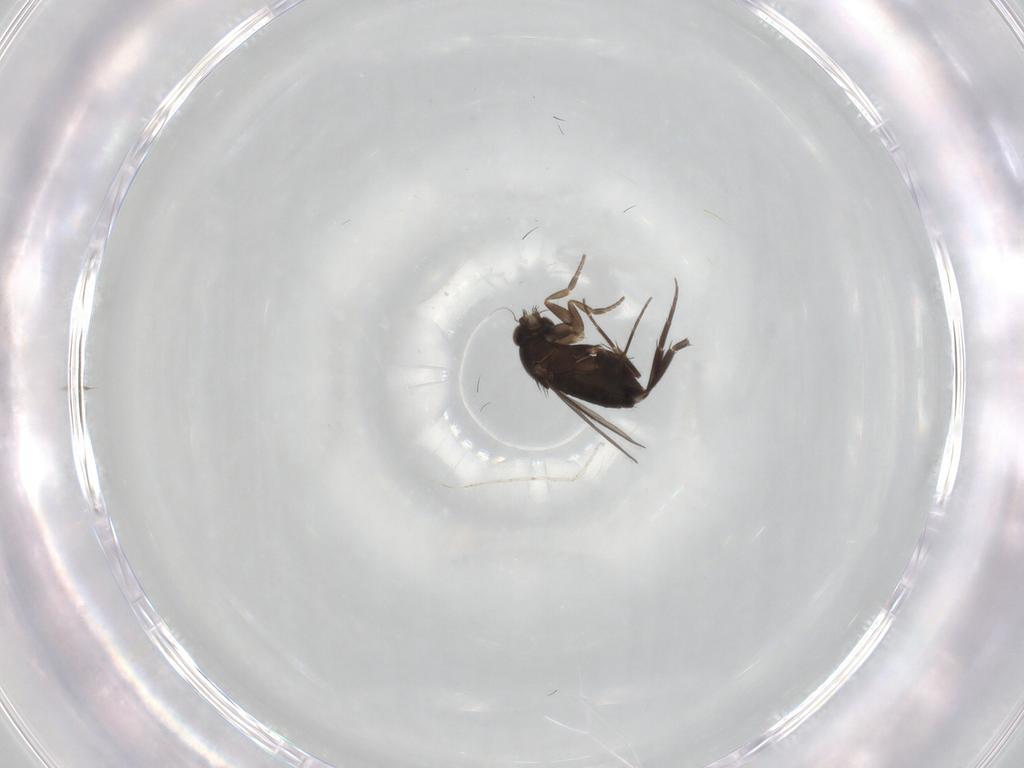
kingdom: Animalia
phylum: Arthropoda
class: Insecta
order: Diptera
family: Phoridae
